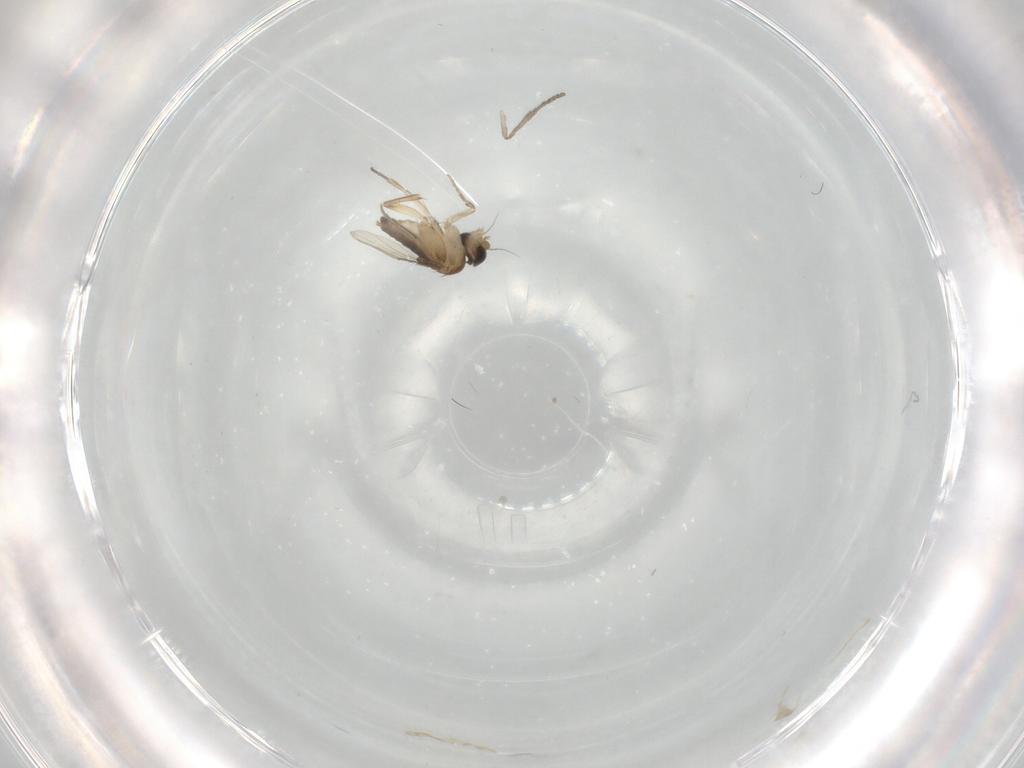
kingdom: Animalia
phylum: Arthropoda
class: Insecta
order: Diptera
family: Phoridae
